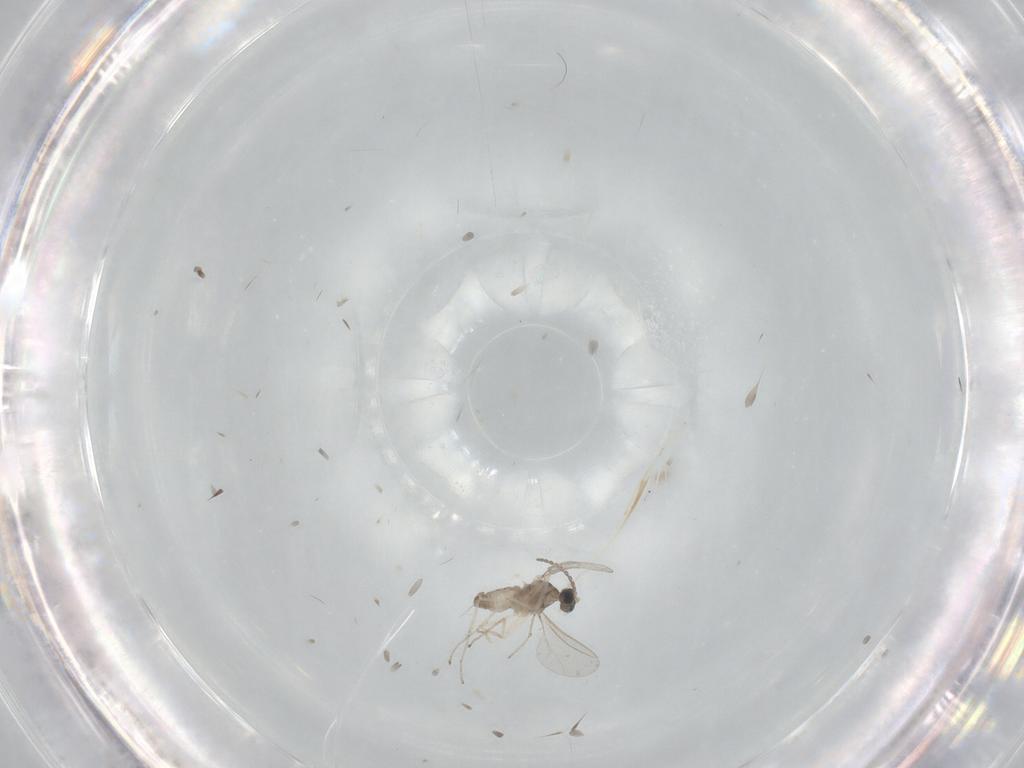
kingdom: Animalia
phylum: Arthropoda
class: Insecta
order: Diptera
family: Cecidomyiidae
